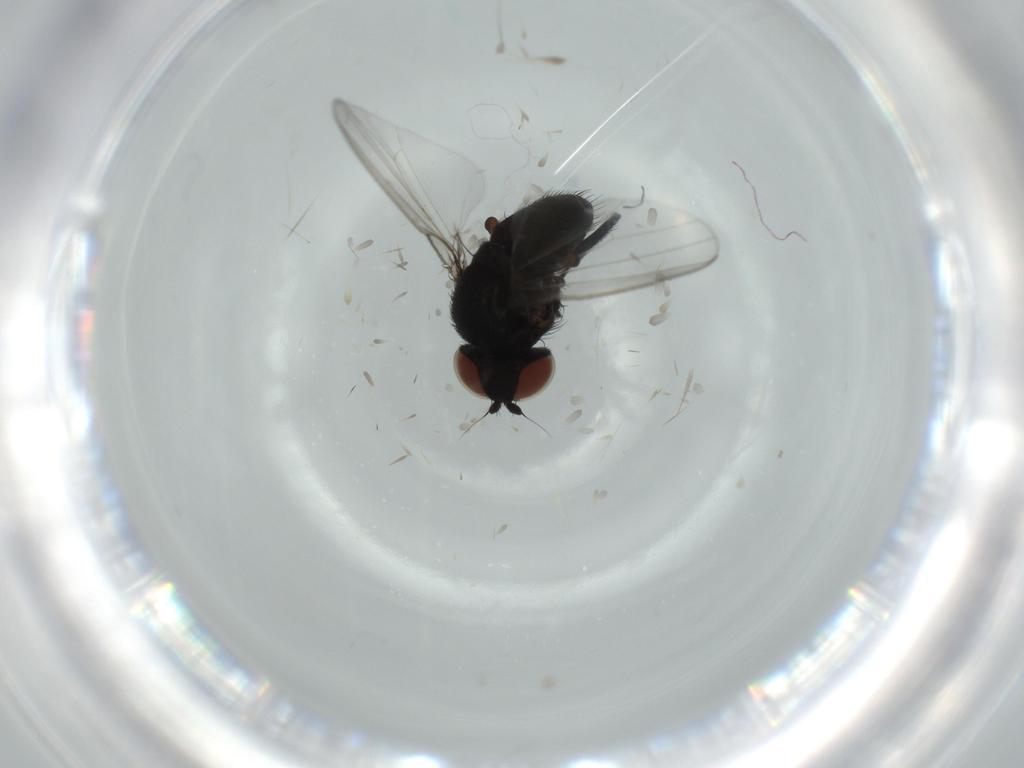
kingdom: Animalia
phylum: Arthropoda
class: Insecta
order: Diptera
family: Milichiidae
